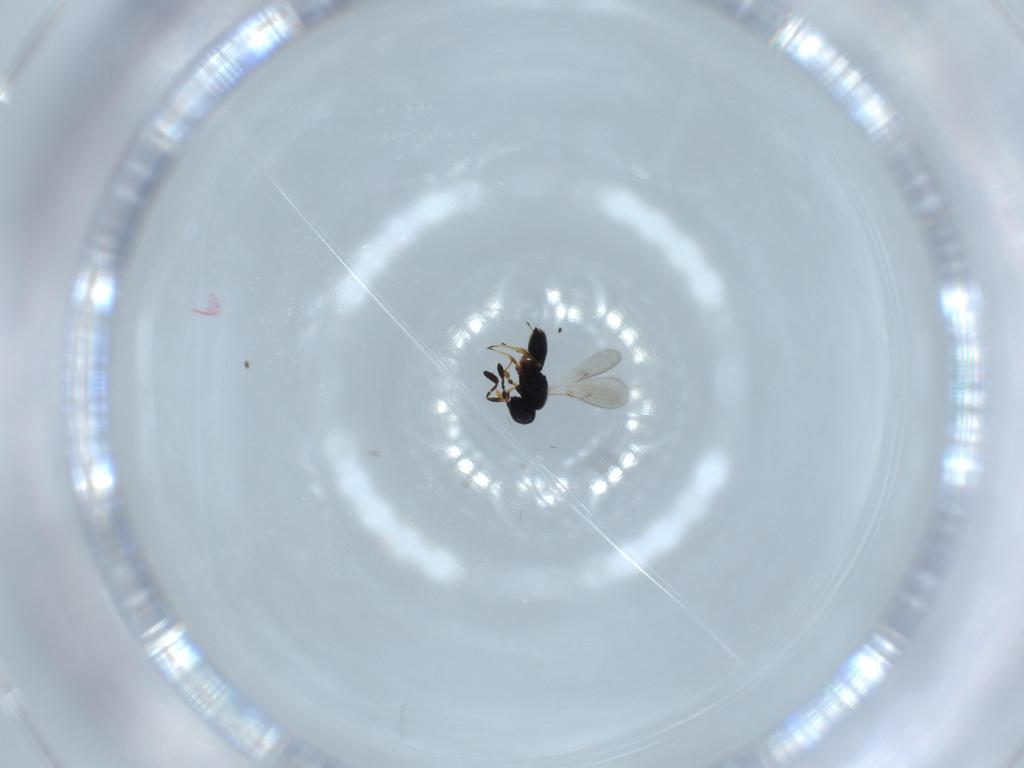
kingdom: Animalia
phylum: Arthropoda
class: Insecta
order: Hymenoptera
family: Scelionidae
